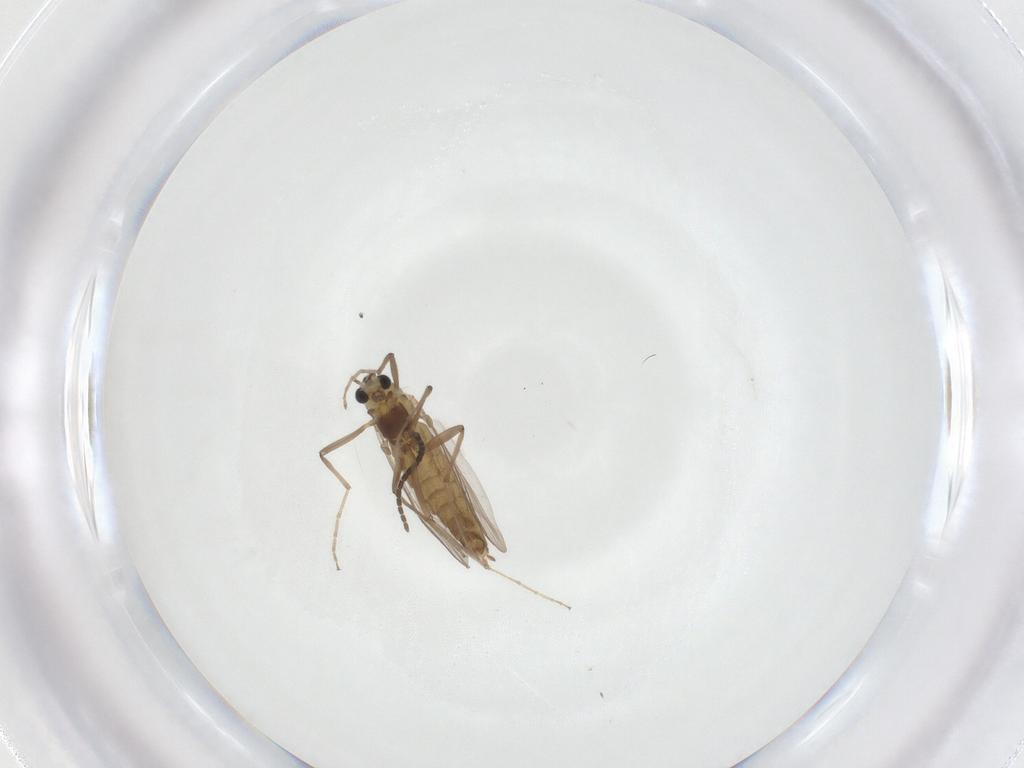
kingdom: Animalia
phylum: Arthropoda
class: Insecta
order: Diptera
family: Chironomidae
